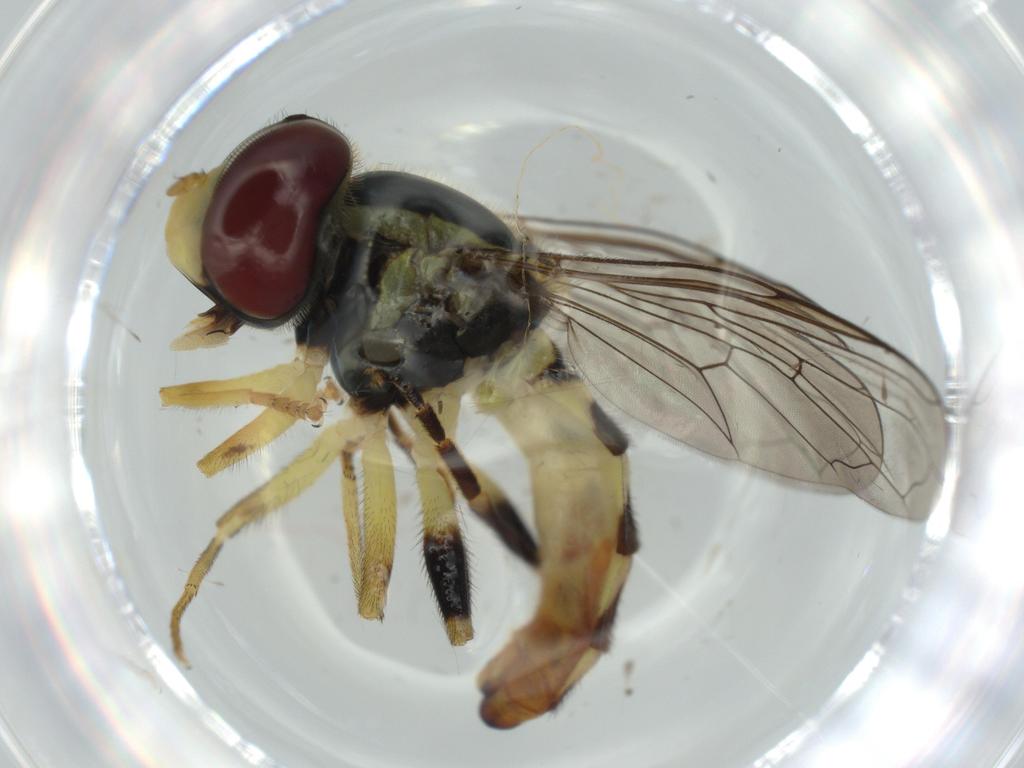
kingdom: Animalia
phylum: Arthropoda
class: Insecta
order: Diptera
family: Syrphidae
